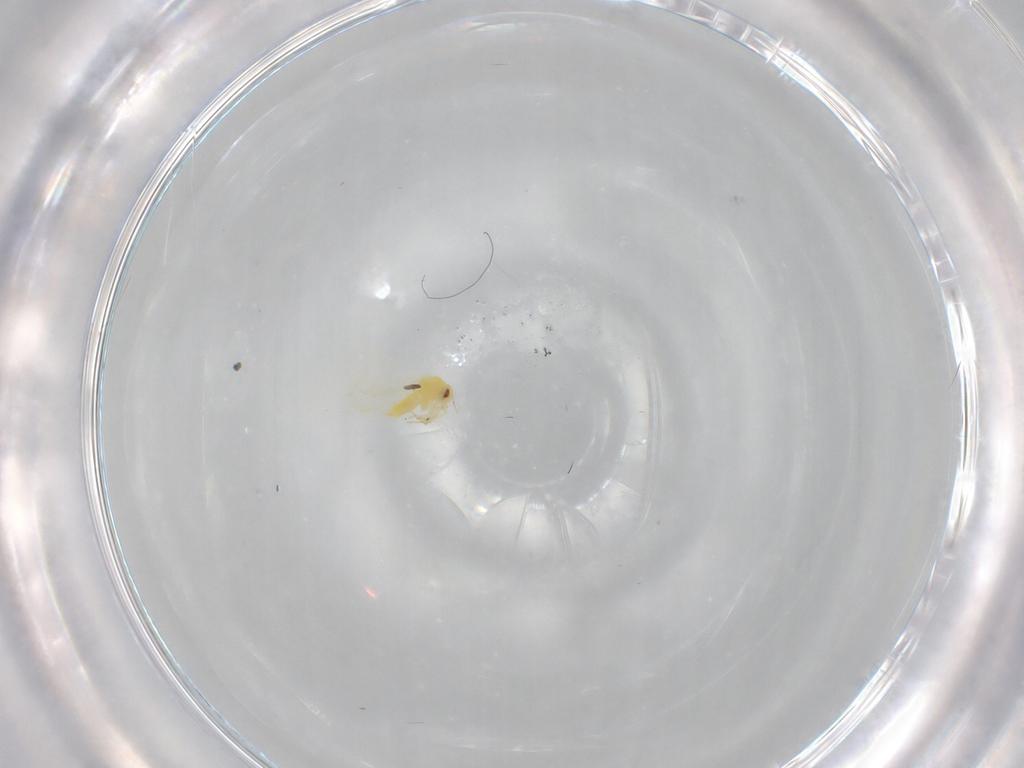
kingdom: Animalia
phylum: Arthropoda
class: Insecta
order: Hemiptera
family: Aleyrodidae
